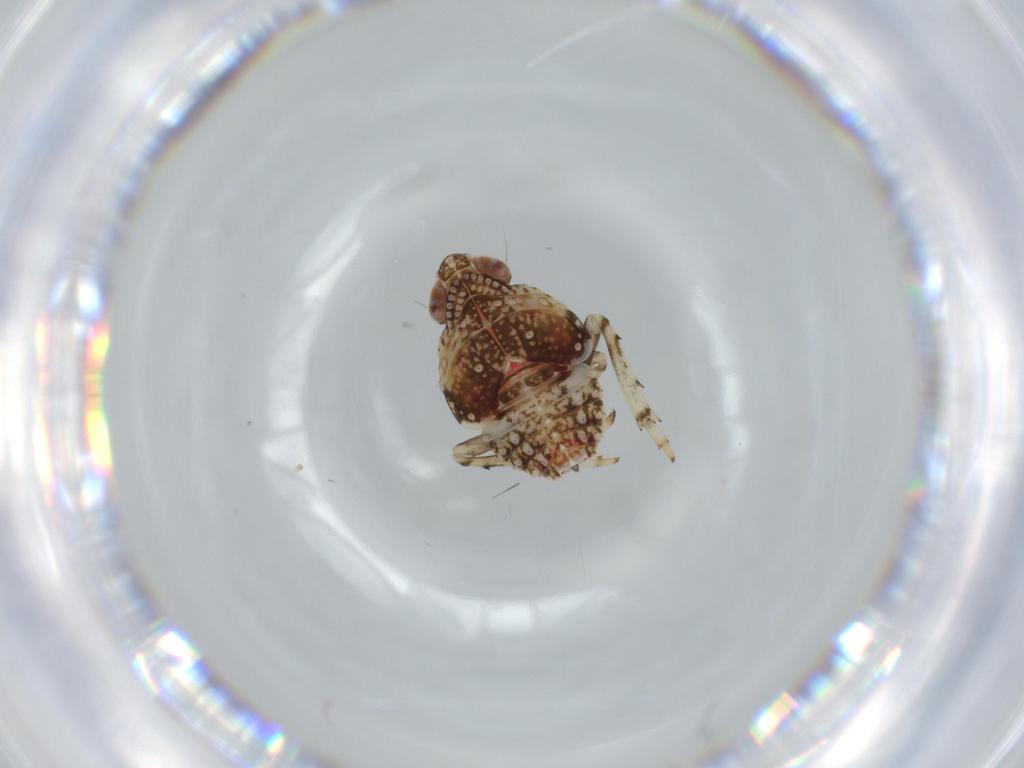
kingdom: Animalia
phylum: Arthropoda
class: Insecta
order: Hemiptera
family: Issidae
